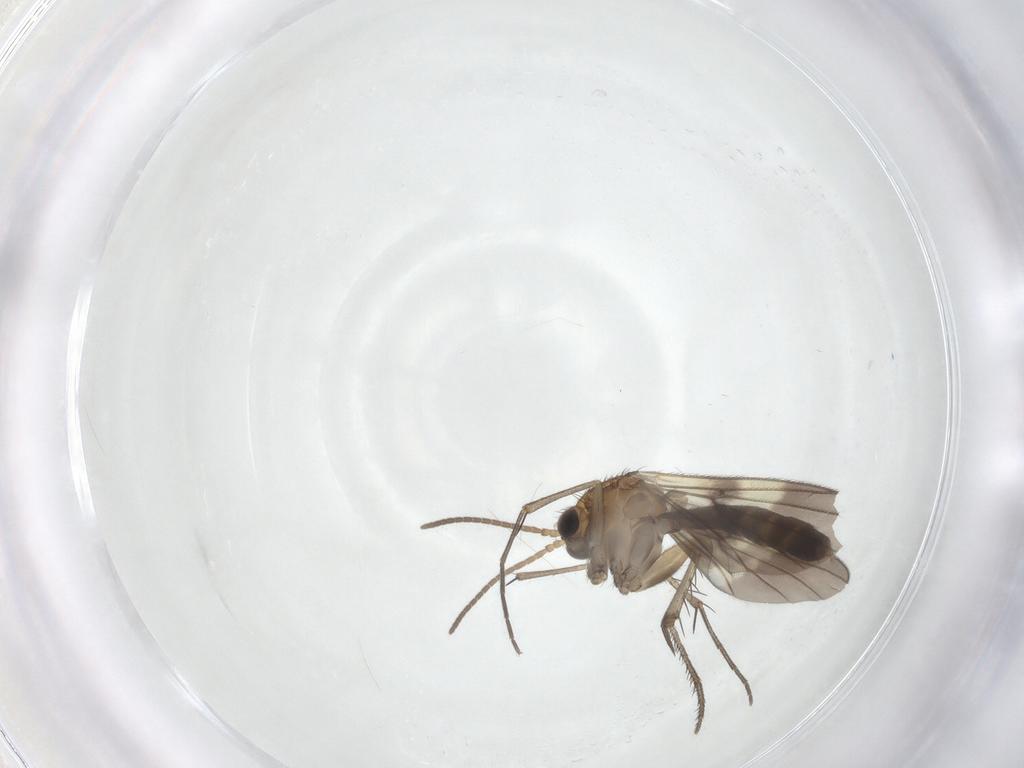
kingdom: Animalia
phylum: Arthropoda
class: Insecta
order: Diptera
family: Mycetophilidae
